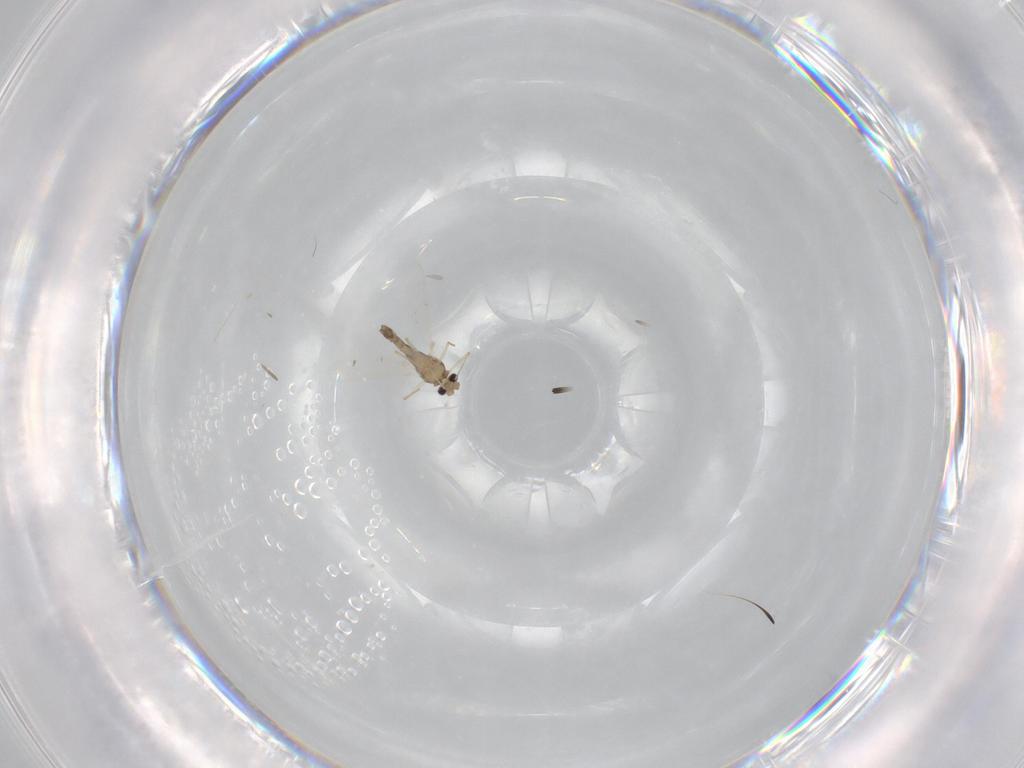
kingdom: Animalia
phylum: Arthropoda
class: Insecta
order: Diptera
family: Chironomidae
